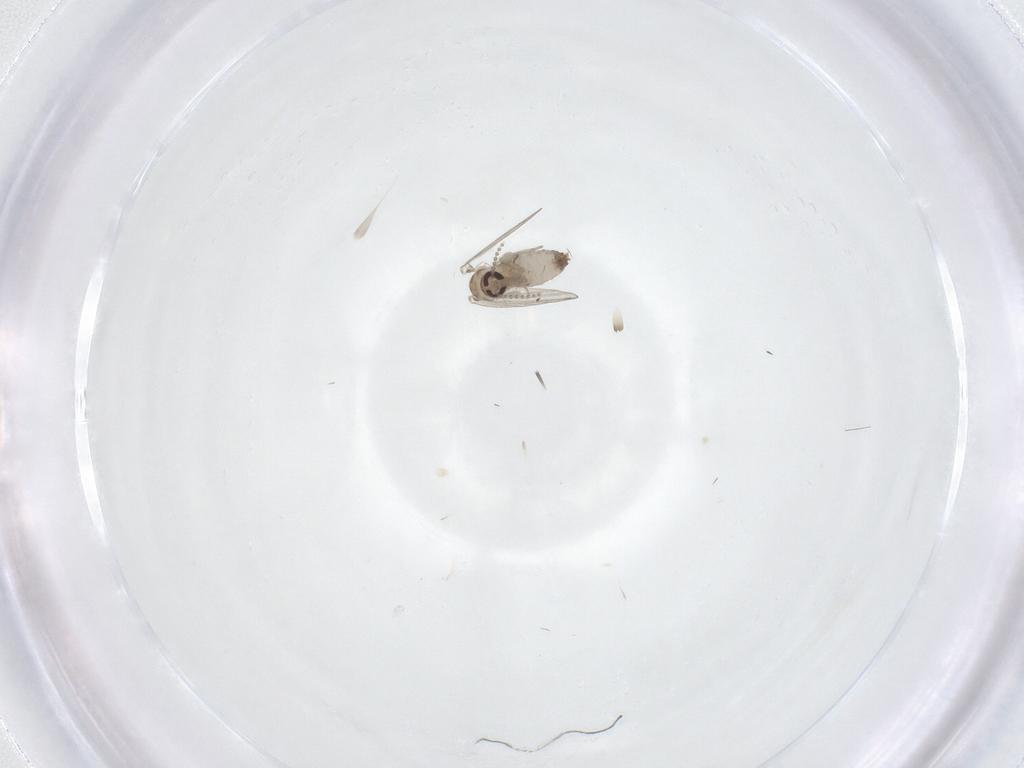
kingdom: Animalia
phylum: Arthropoda
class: Insecta
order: Diptera
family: Psychodidae
